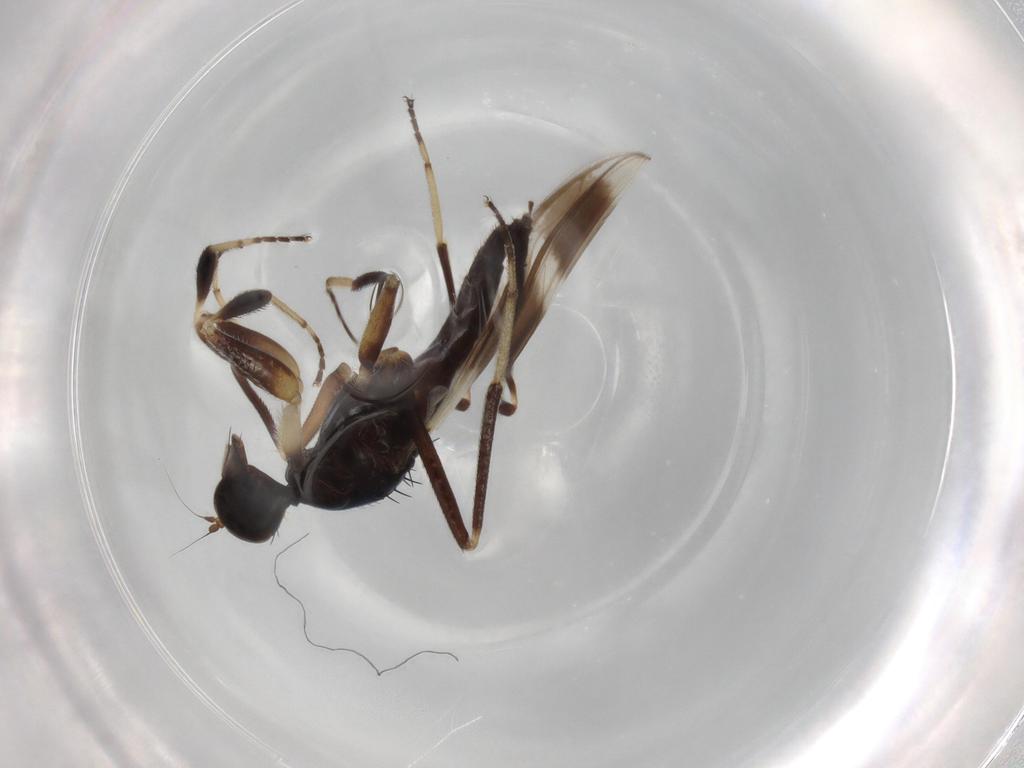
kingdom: Animalia
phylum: Arthropoda
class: Insecta
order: Diptera
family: Hybotidae
